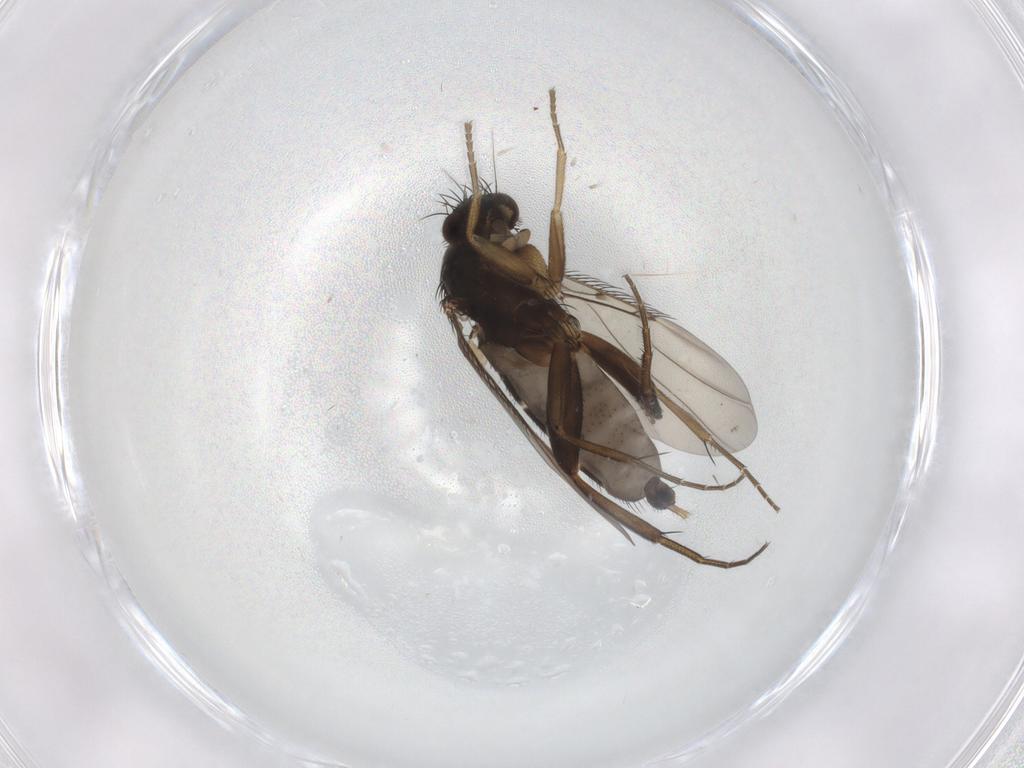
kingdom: Animalia
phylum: Arthropoda
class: Insecta
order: Diptera
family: Phoridae
